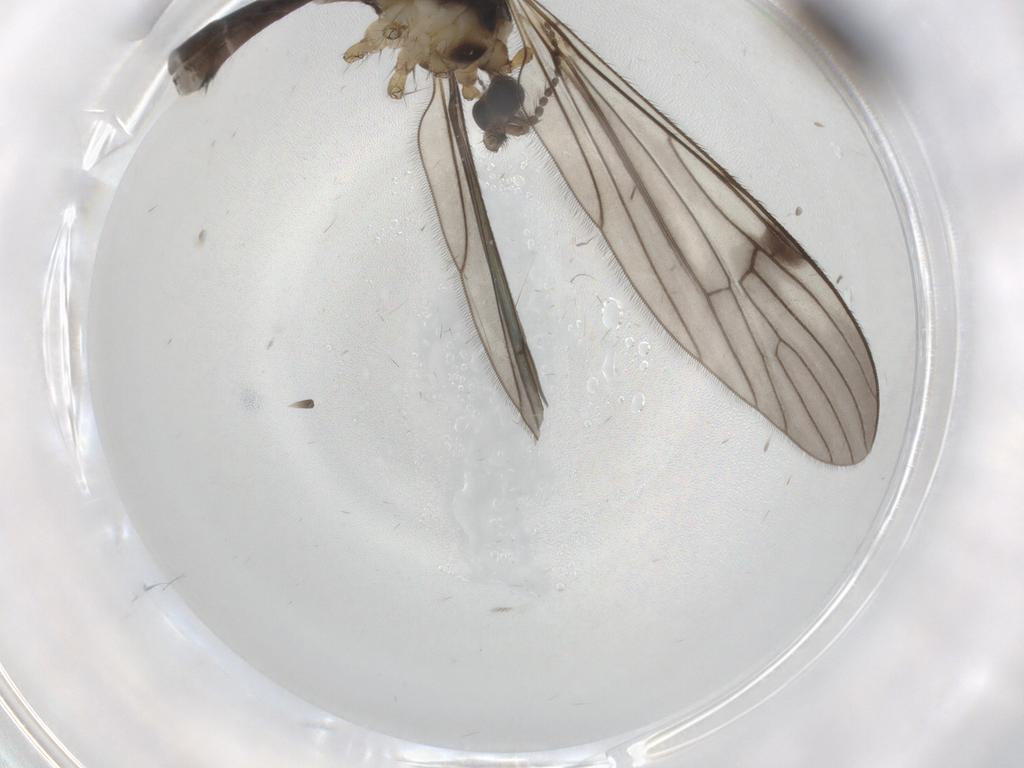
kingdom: Animalia
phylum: Arthropoda
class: Insecta
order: Diptera
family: Limoniidae
